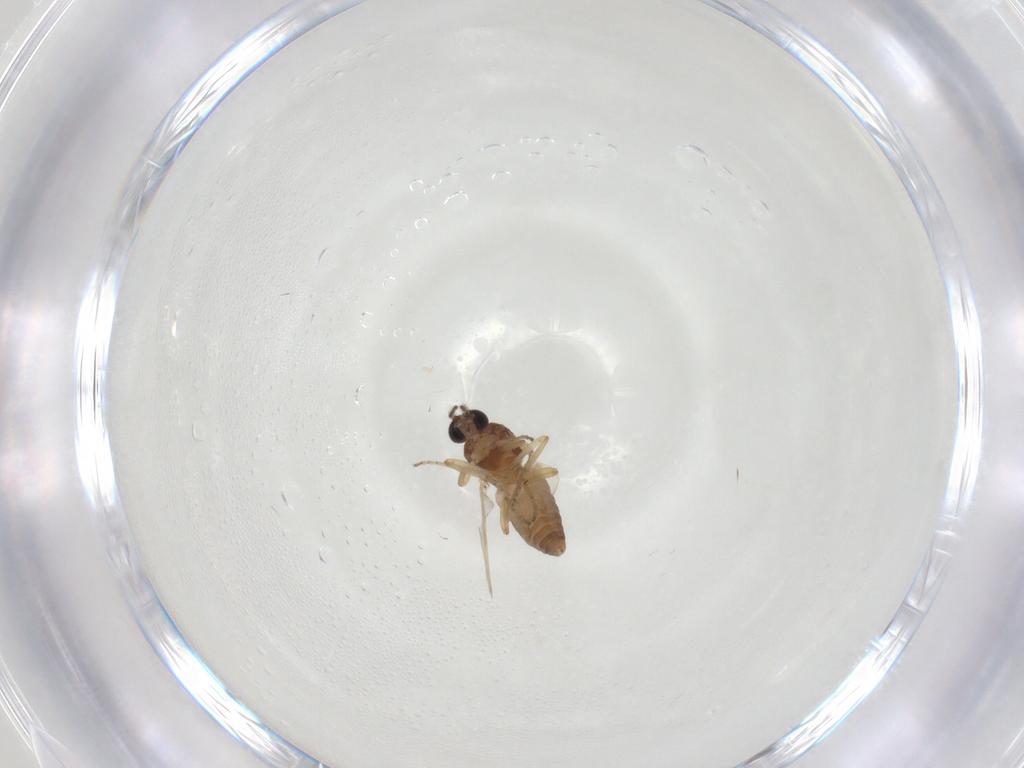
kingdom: Animalia
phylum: Arthropoda
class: Insecta
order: Diptera
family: Ceratopogonidae
